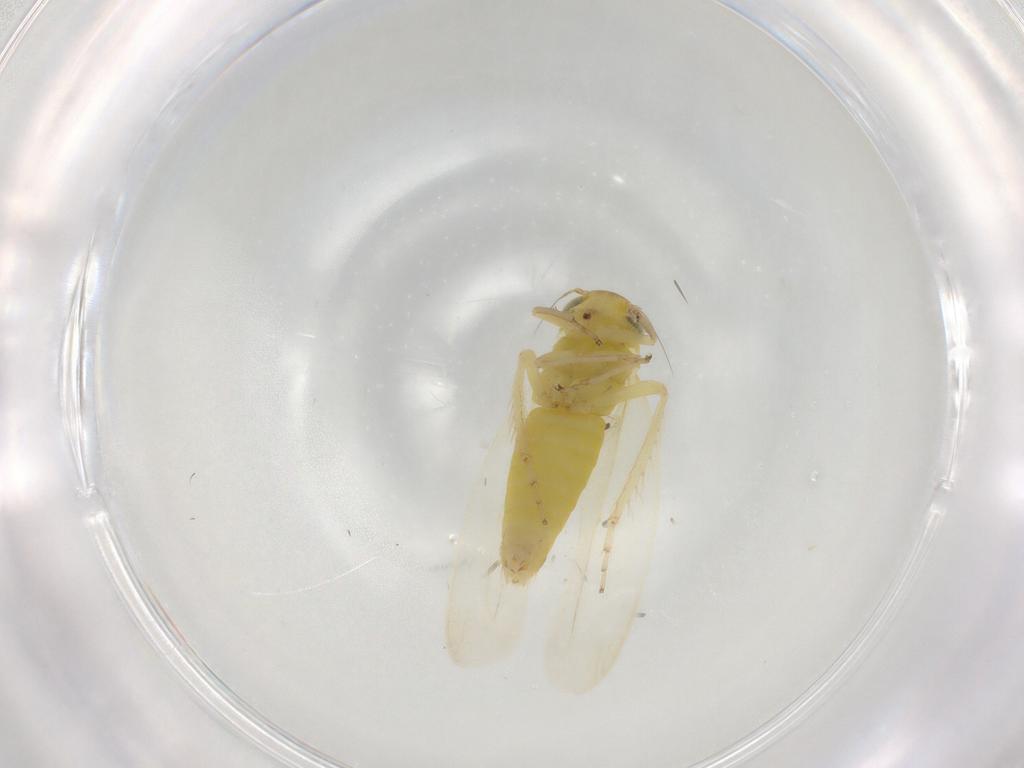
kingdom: Animalia
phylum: Arthropoda
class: Insecta
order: Hemiptera
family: Cicadellidae
